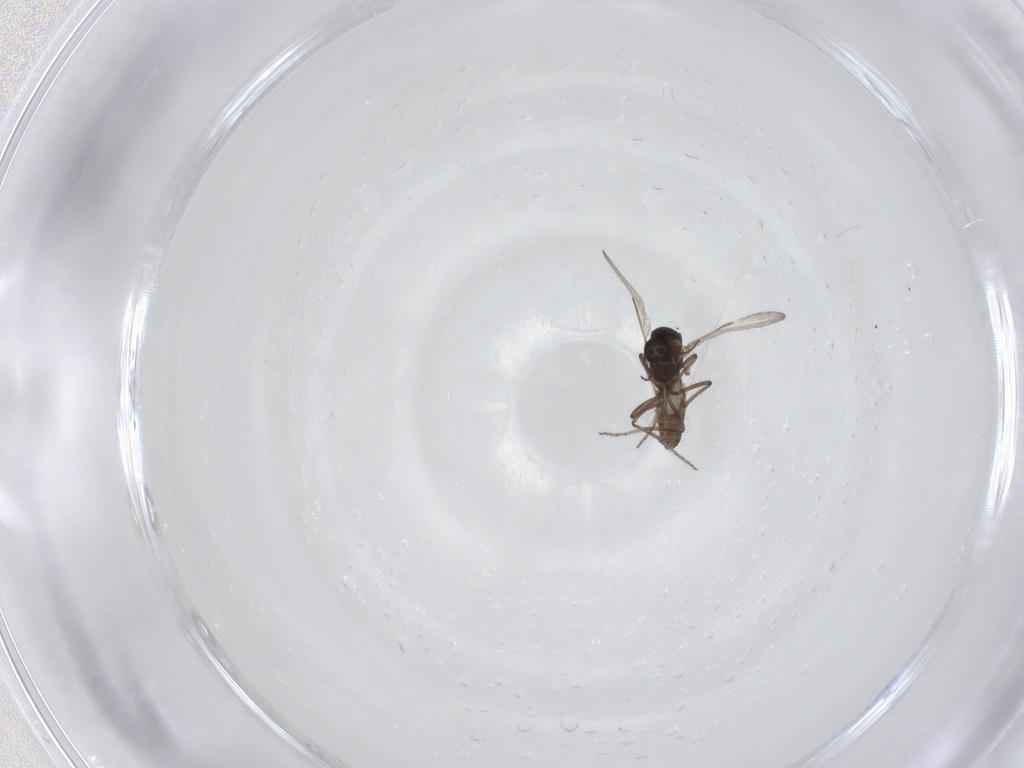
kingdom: Animalia
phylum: Arthropoda
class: Insecta
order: Diptera
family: Ceratopogonidae
